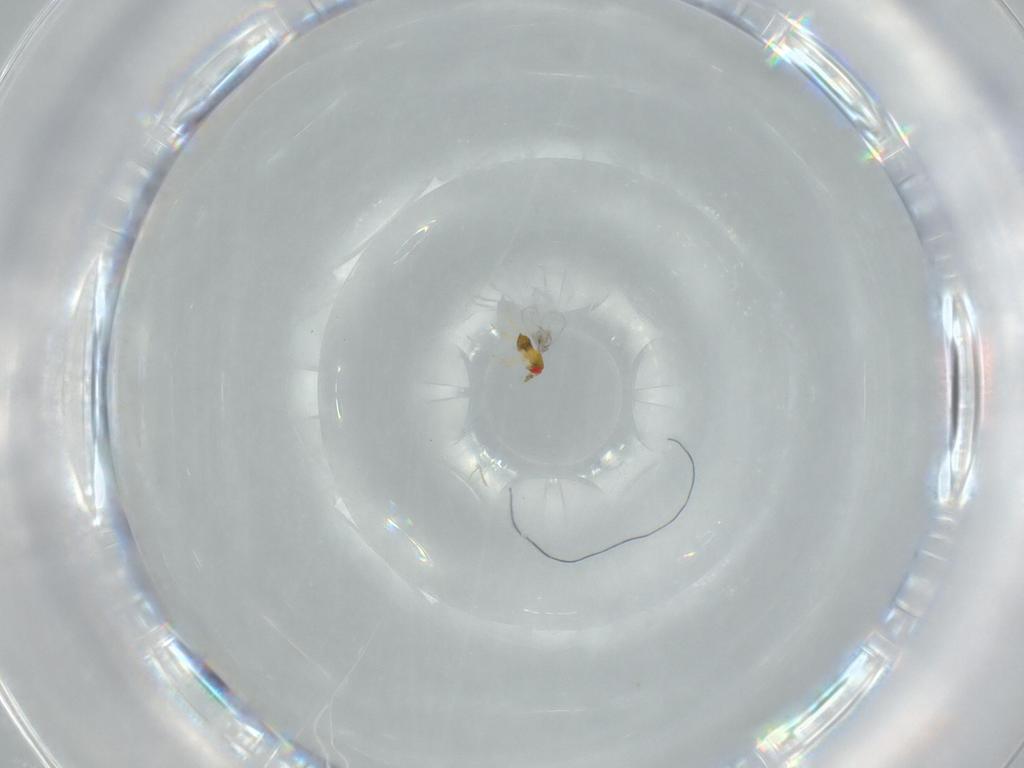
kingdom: Animalia
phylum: Arthropoda
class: Insecta
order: Hymenoptera
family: Trichogrammatidae
